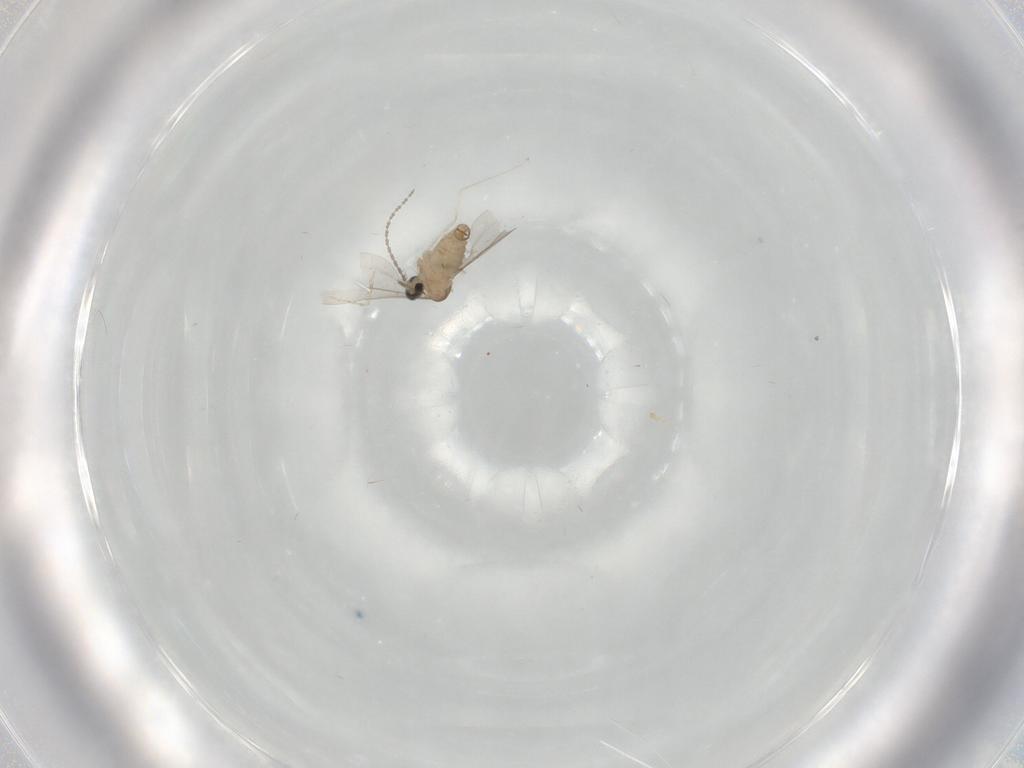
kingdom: Animalia
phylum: Arthropoda
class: Insecta
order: Diptera
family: Cecidomyiidae
